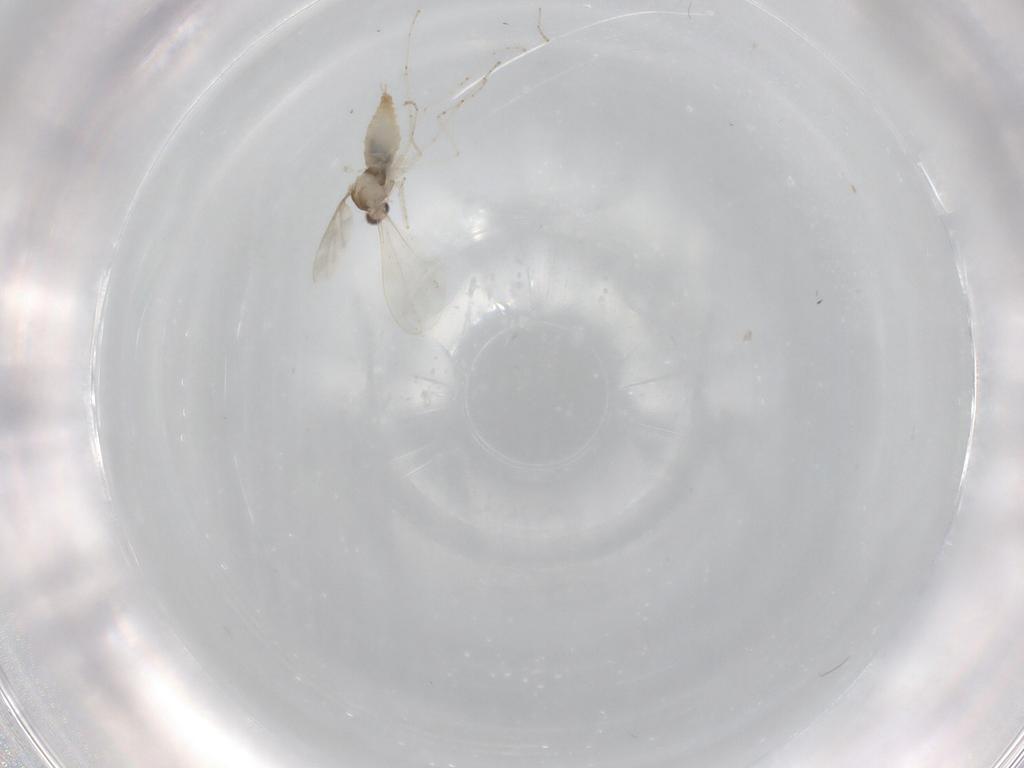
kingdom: Animalia
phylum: Arthropoda
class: Insecta
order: Diptera
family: Cecidomyiidae
